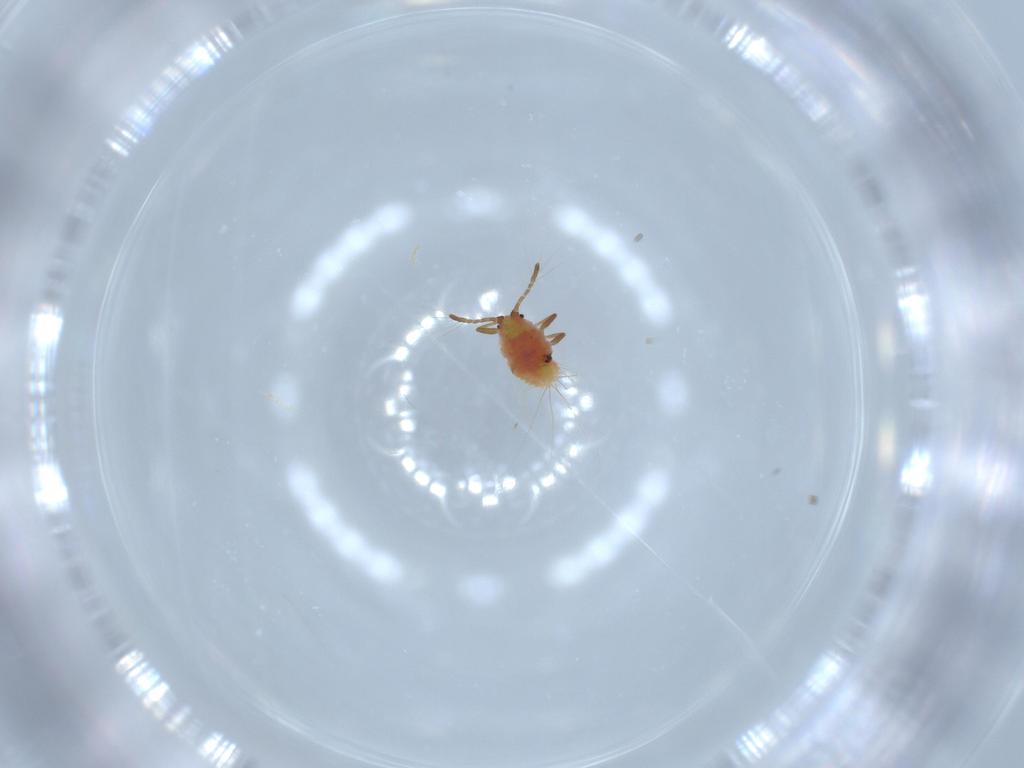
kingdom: Animalia
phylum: Arthropoda
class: Insecta
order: Hemiptera
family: Coccoidea_incertae_sedis
